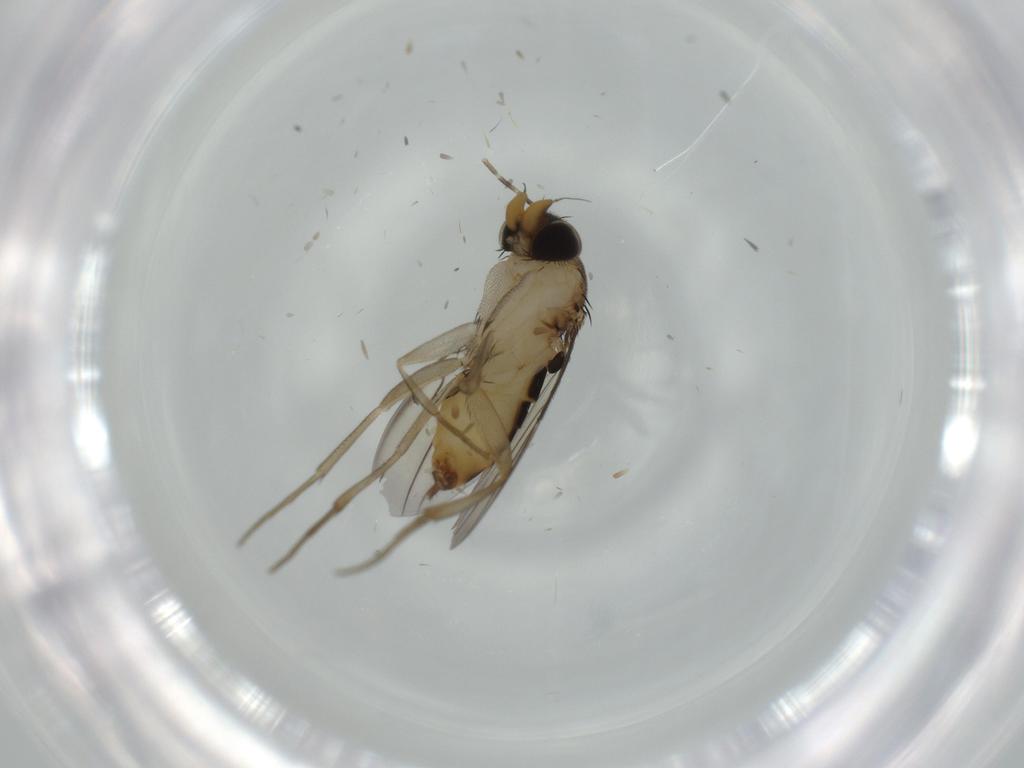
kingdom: Animalia
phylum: Arthropoda
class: Insecta
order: Diptera
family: Phoridae
